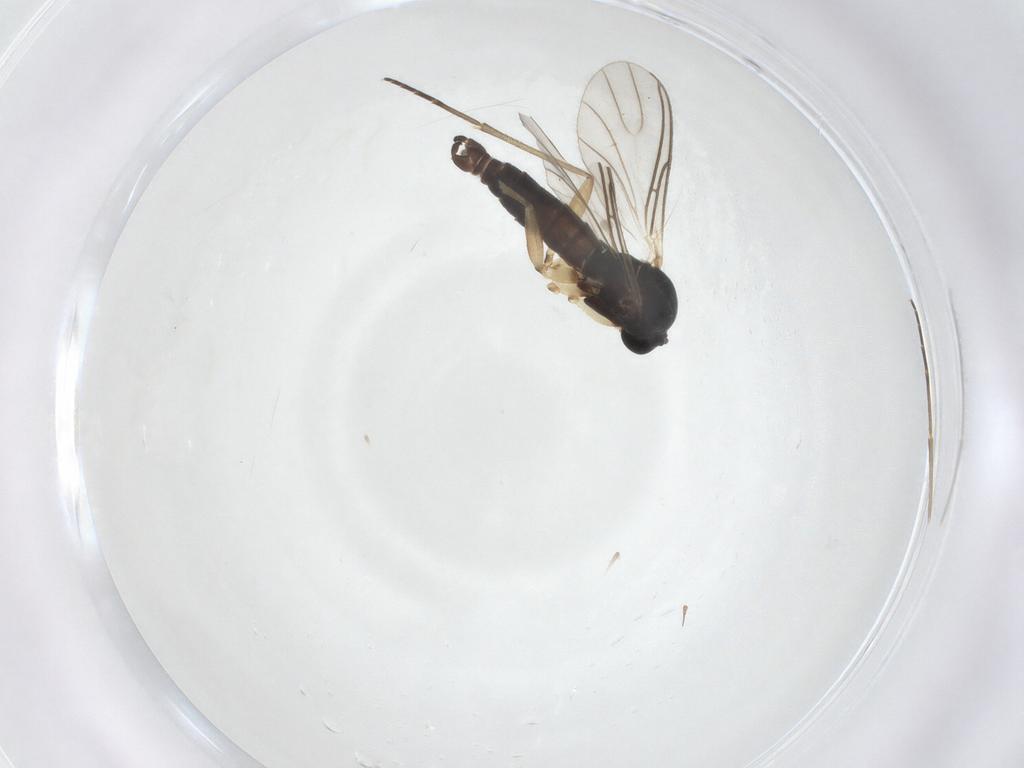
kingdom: Animalia
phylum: Arthropoda
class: Insecta
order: Diptera
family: Sciaridae
